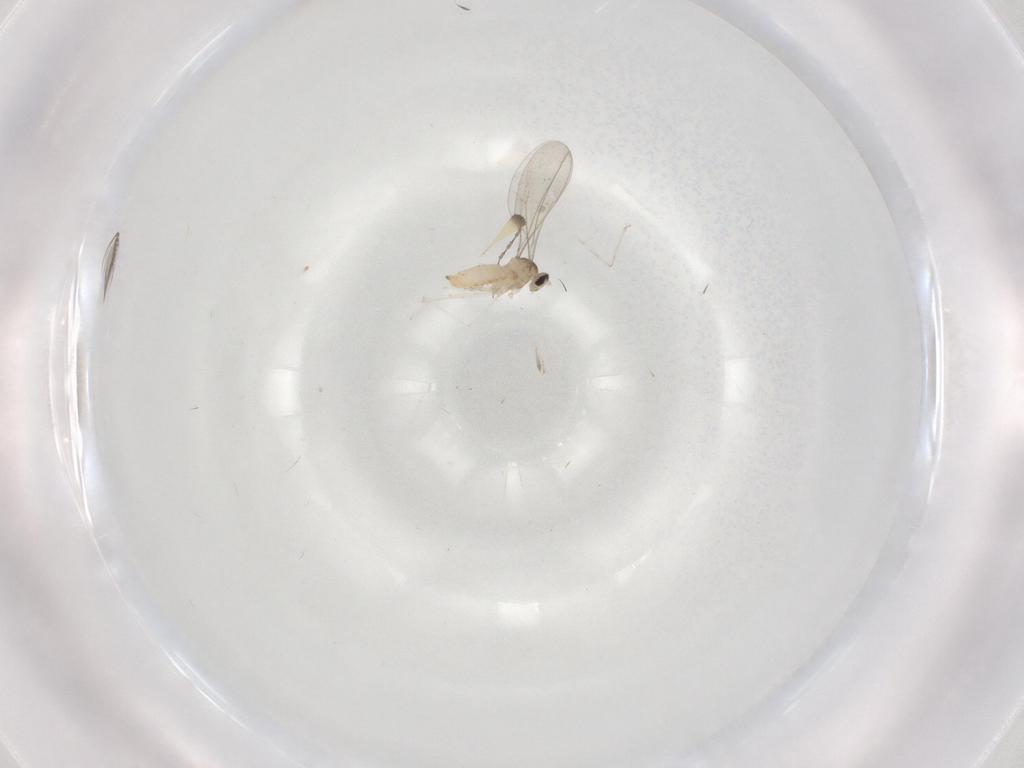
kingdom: Animalia
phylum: Arthropoda
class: Insecta
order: Diptera
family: Cecidomyiidae
